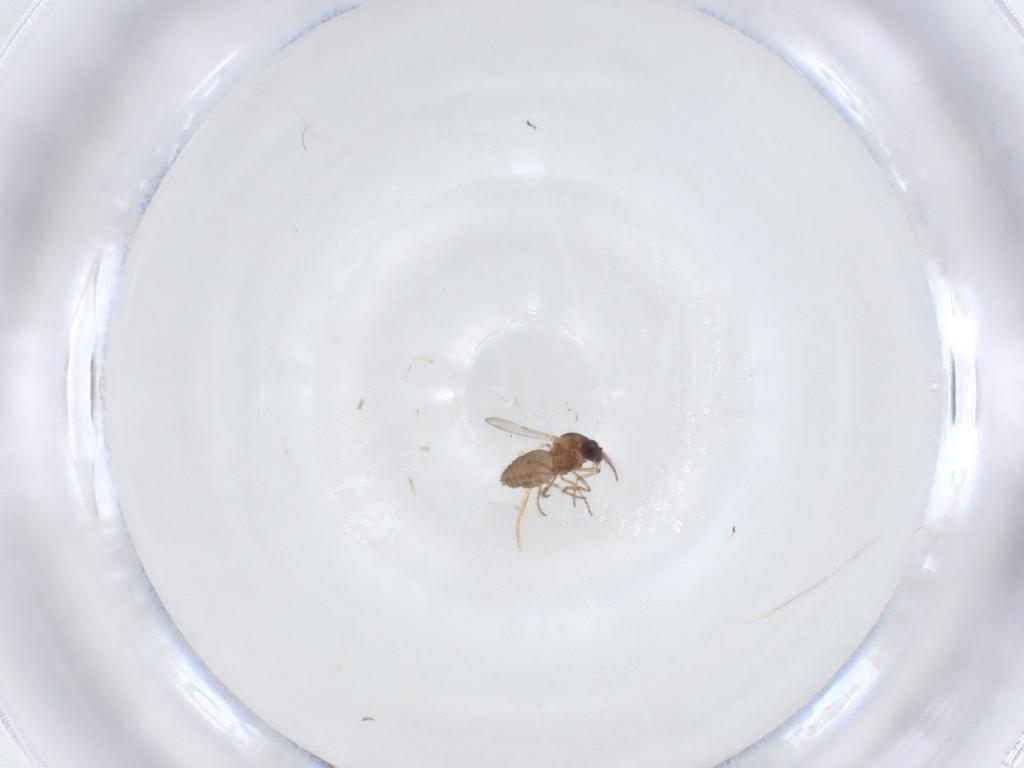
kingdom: Animalia
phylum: Arthropoda
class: Insecta
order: Diptera
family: Ceratopogonidae
